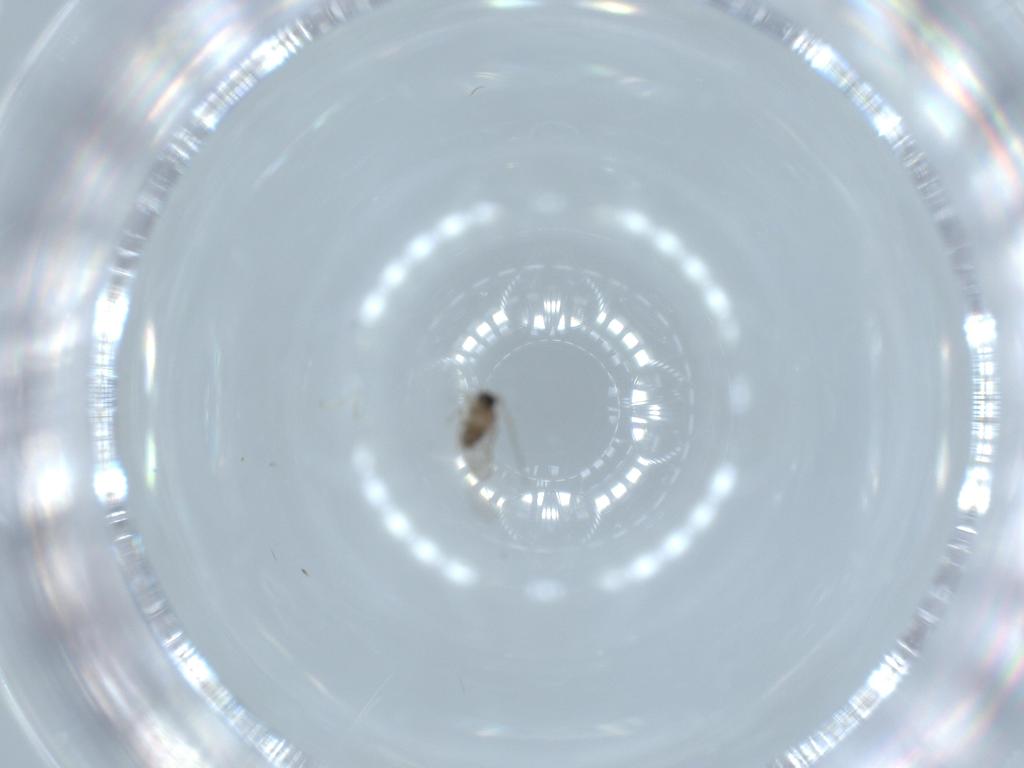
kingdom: Animalia
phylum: Arthropoda
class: Insecta
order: Diptera
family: Cecidomyiidae
